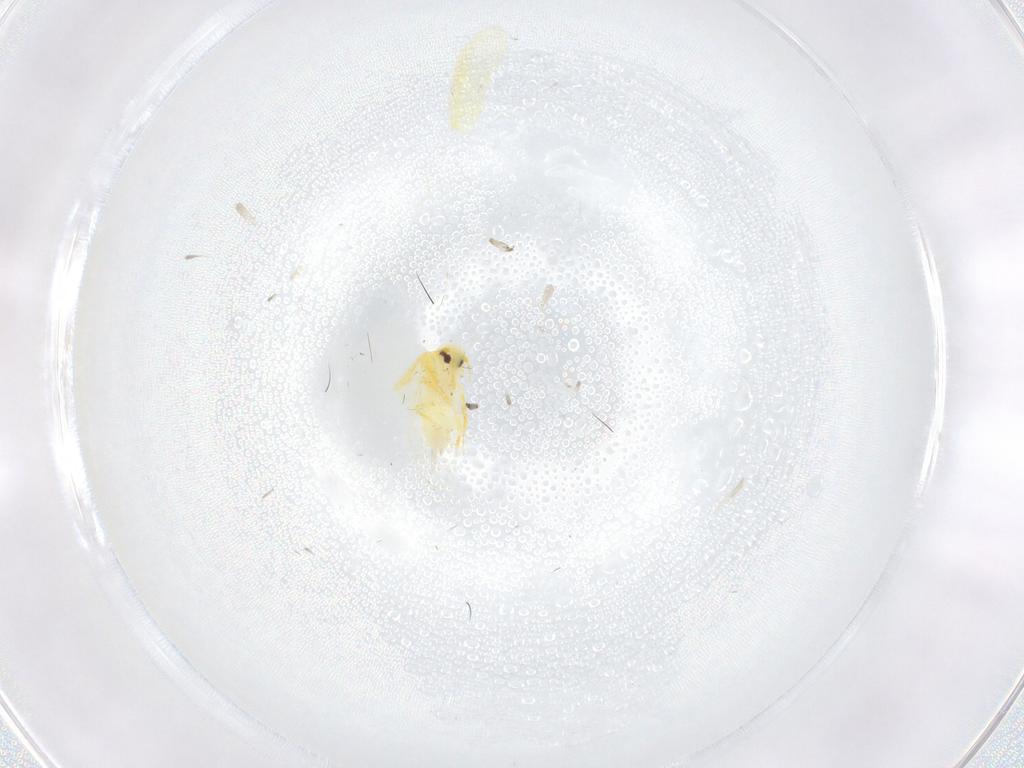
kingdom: Animalia
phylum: Arthropoda
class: Insecta
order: Hemiptera
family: Aleyrodidae
